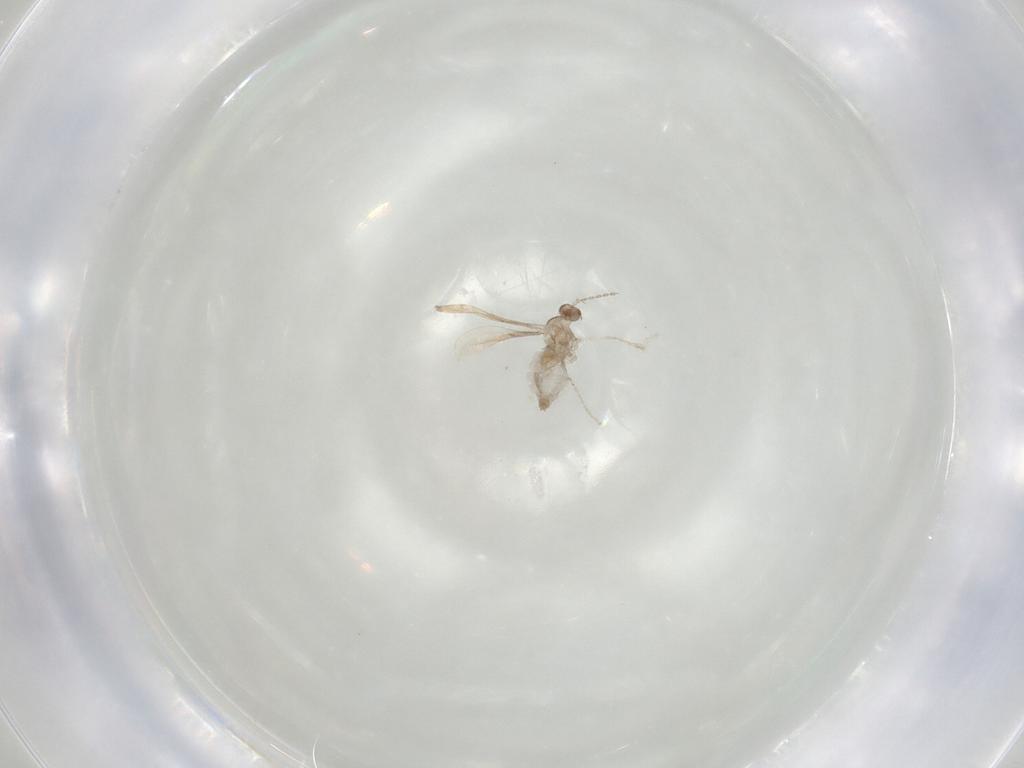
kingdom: Animalia
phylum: Arthropoda
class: Insecta
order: Diptera
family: Cecidomyiidae
